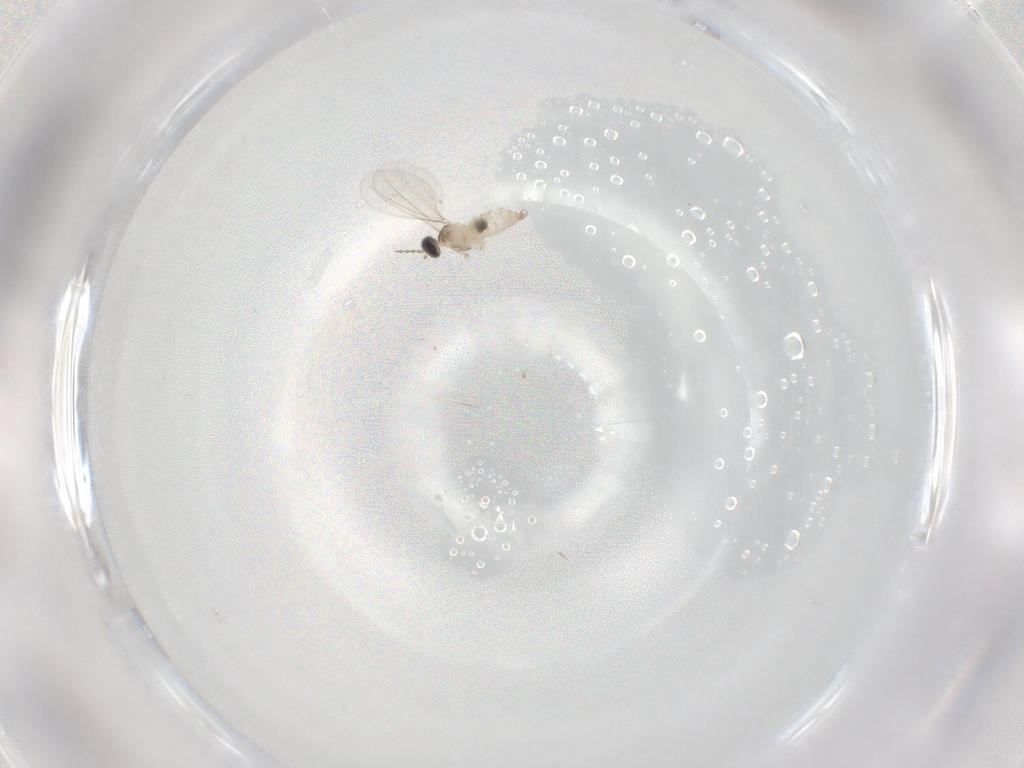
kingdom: Animalia
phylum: Arthropoda
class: Insecta
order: Diptera
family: Cecidomyiidae
